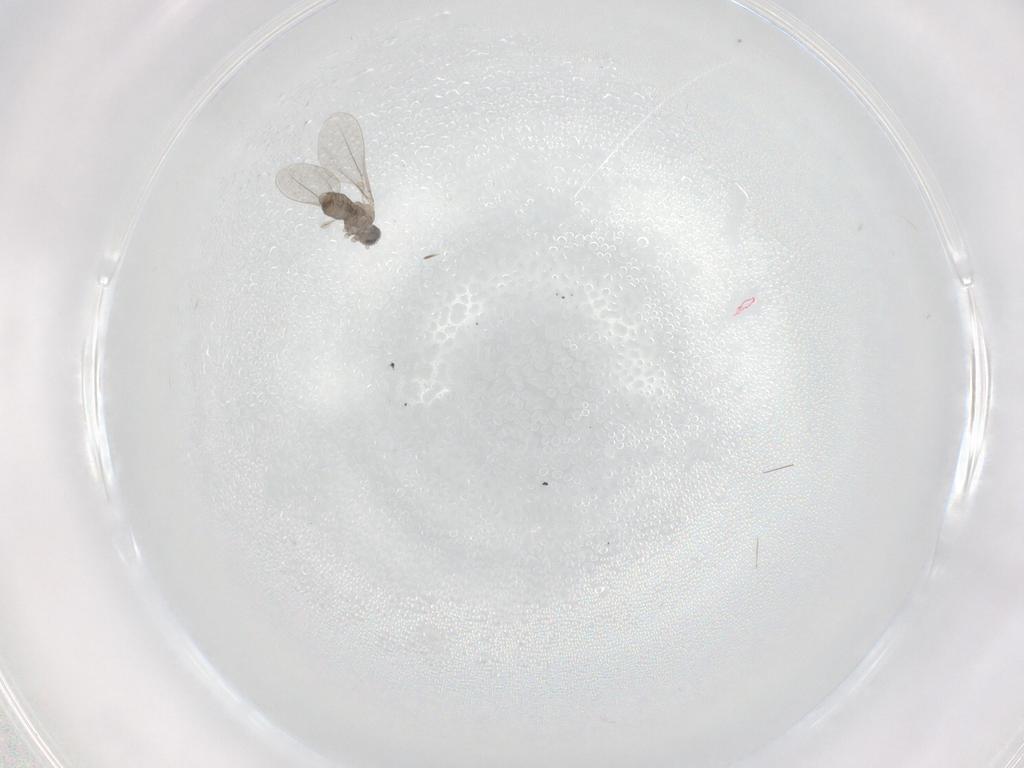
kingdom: Animalia
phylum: Arthropoda
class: Insecta
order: Diptera
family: Cecidomyiidae
